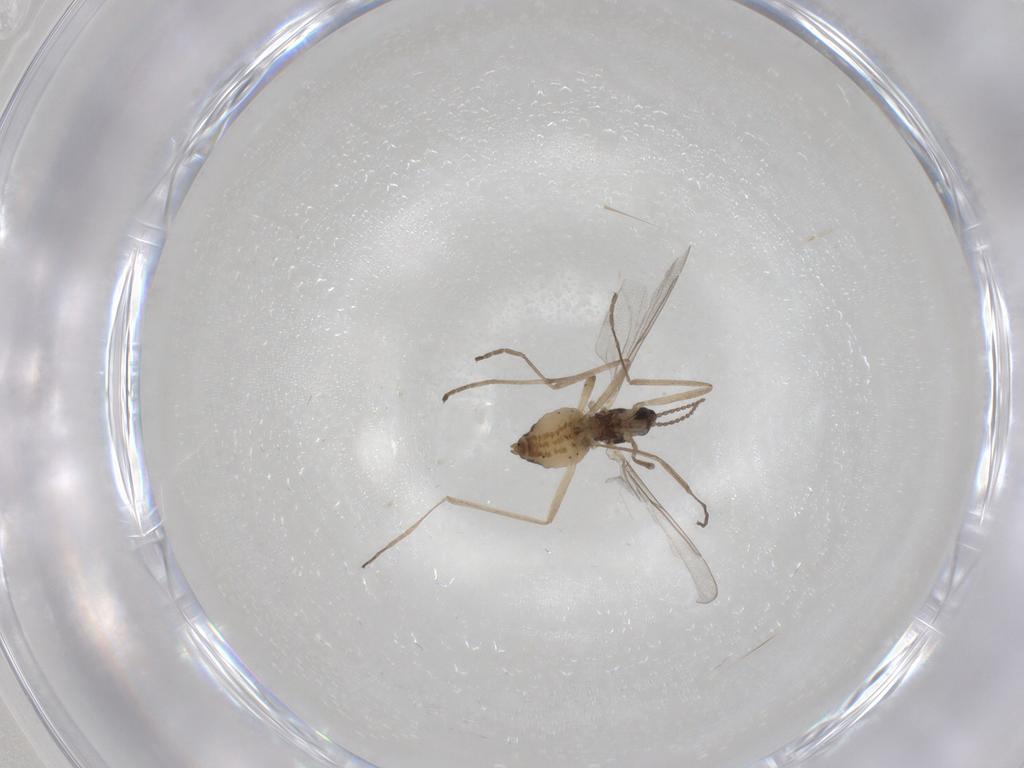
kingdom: Animalia
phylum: Arthropoda
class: Insecta
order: Diptera
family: Cecidomyiidae
